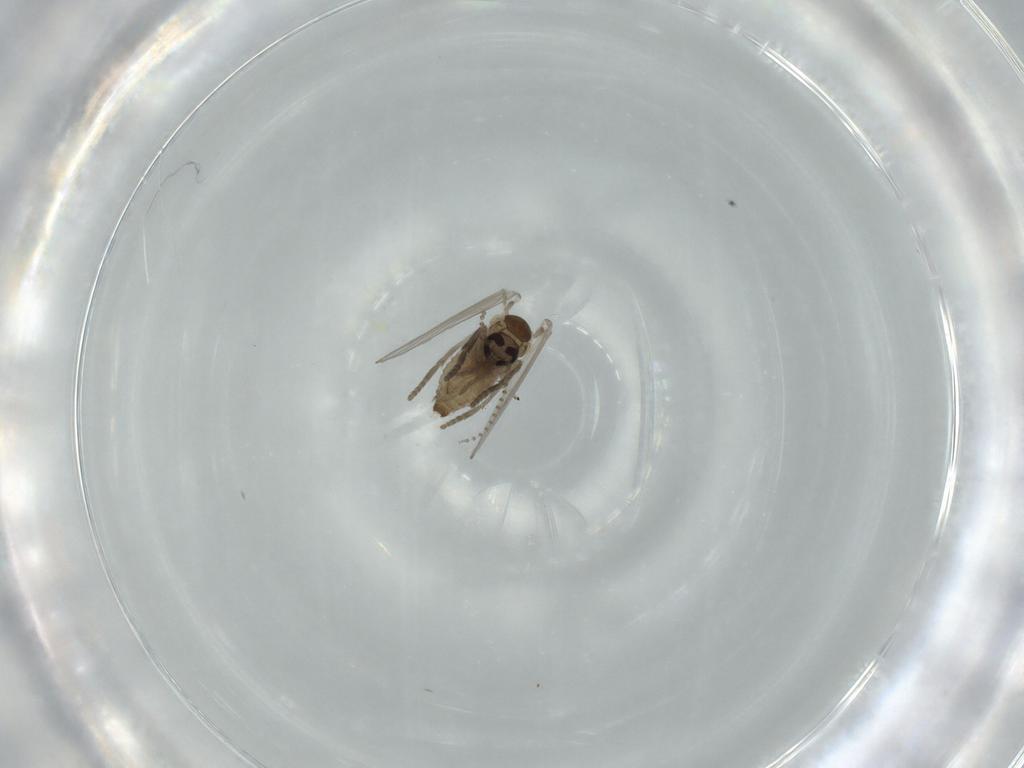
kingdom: Animalia
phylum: Arthropoda
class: Insecta
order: Diptera
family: Psychodidae
